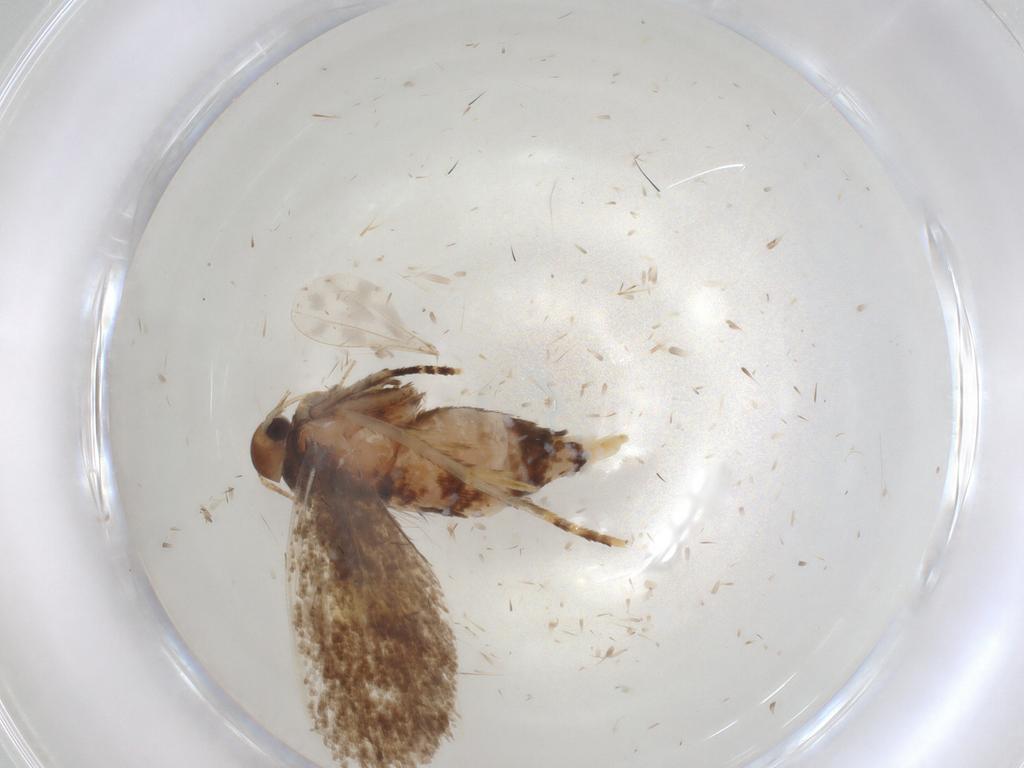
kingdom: Animalia
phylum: Arthropoda
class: Insecta
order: Lepidoptera
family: Oecophoridae
